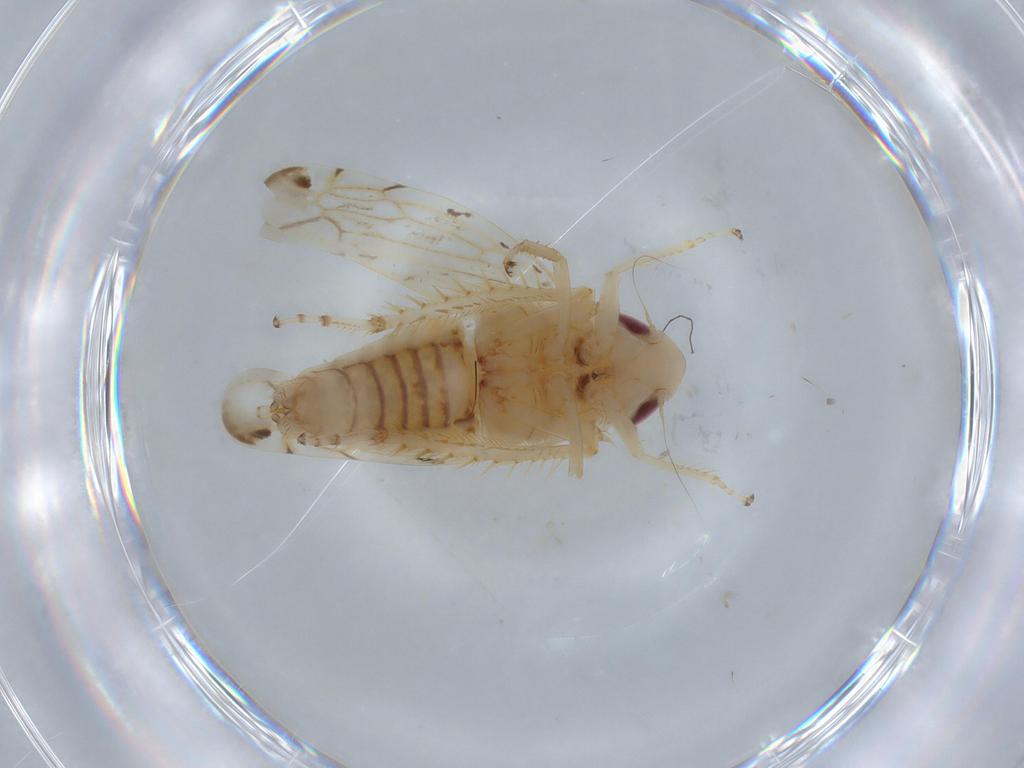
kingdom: Animalia
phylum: Arthropoda
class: Insecta
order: Hemiptera
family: Cicadellidae
